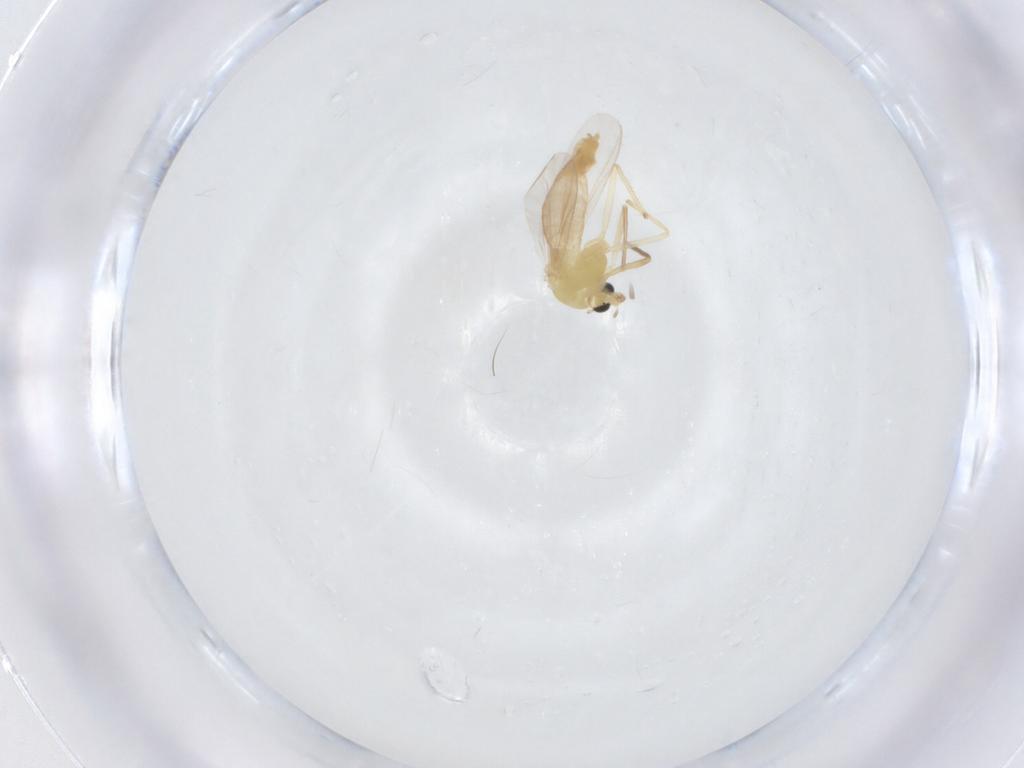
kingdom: Animalia
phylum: Arthropoda
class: Insecta
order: Diptera
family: Chironomidae
